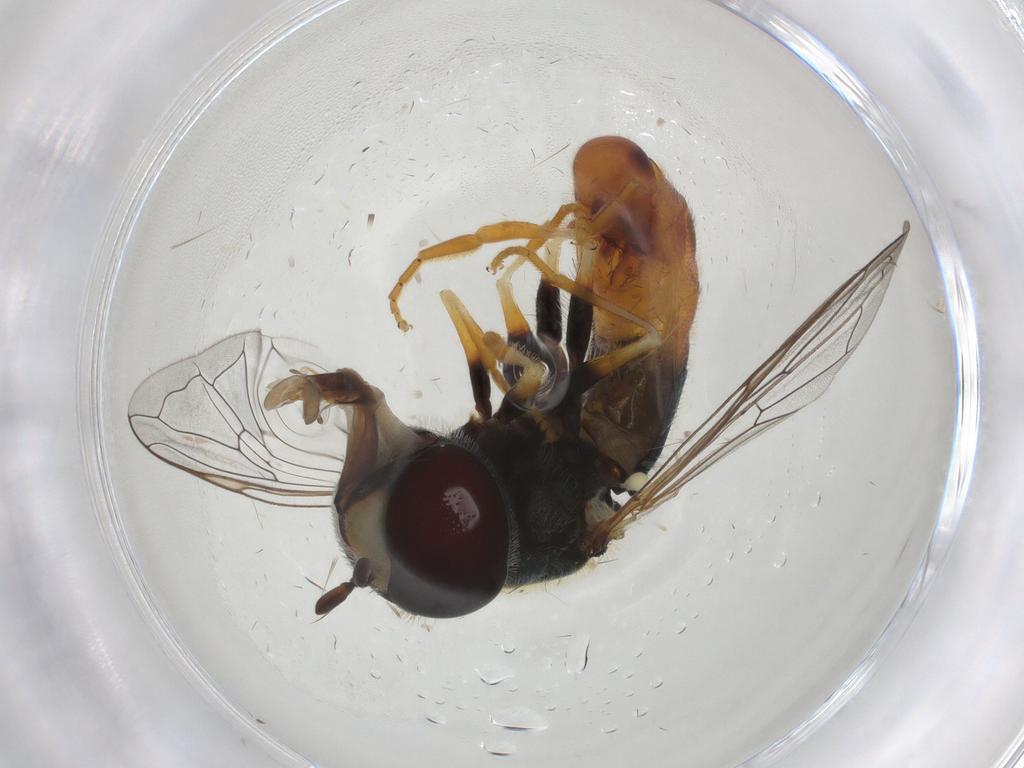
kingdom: Animalia
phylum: Arthropoda
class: Insecta
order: Diptera
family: Syrphidae
